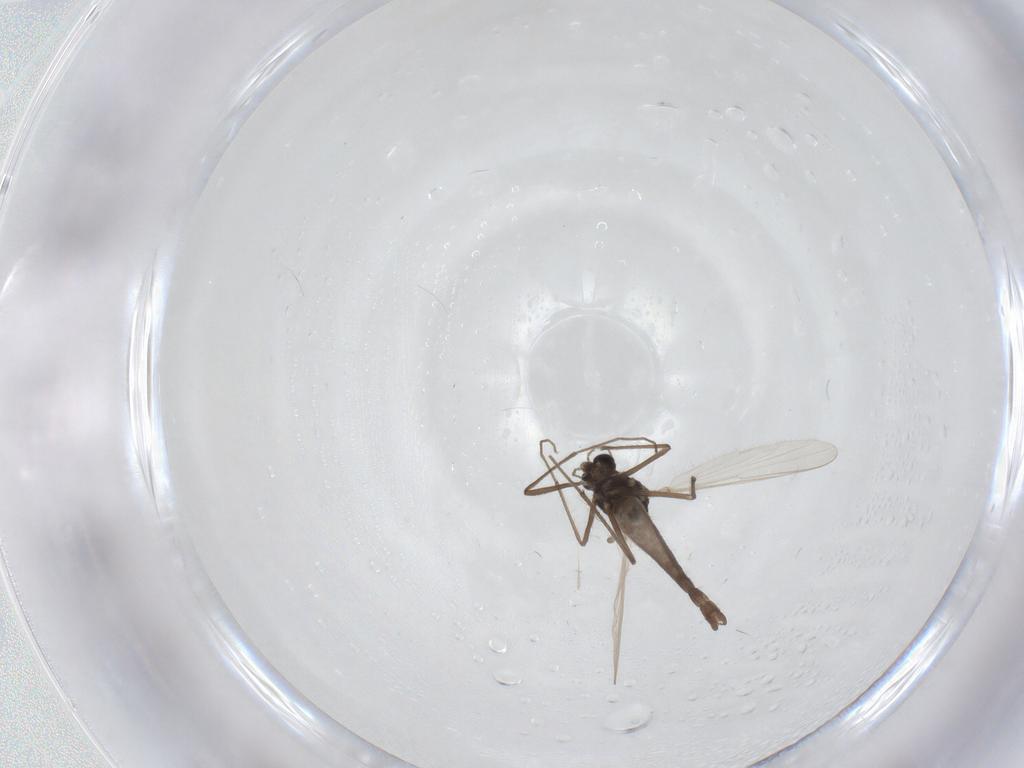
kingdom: Animalia
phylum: Arthropoda
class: Insecta
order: Diptera
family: Chironomidae
